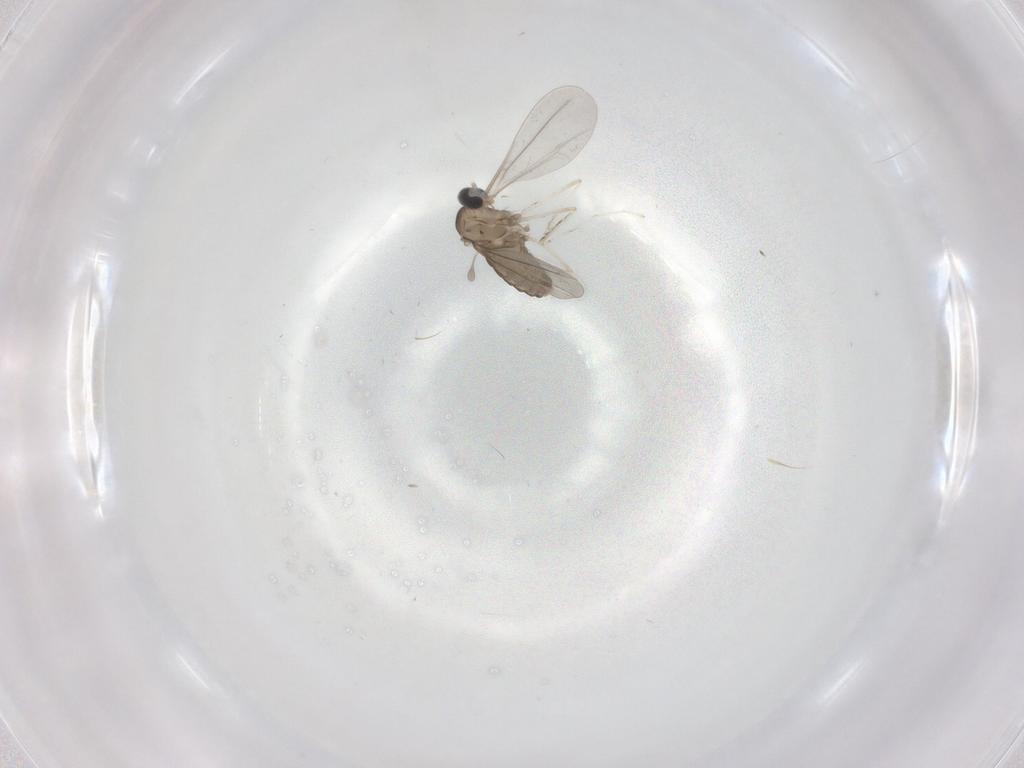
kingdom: Animalia
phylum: Arthropoda
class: Insecta
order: Diptera
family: Cecidomyiidae
